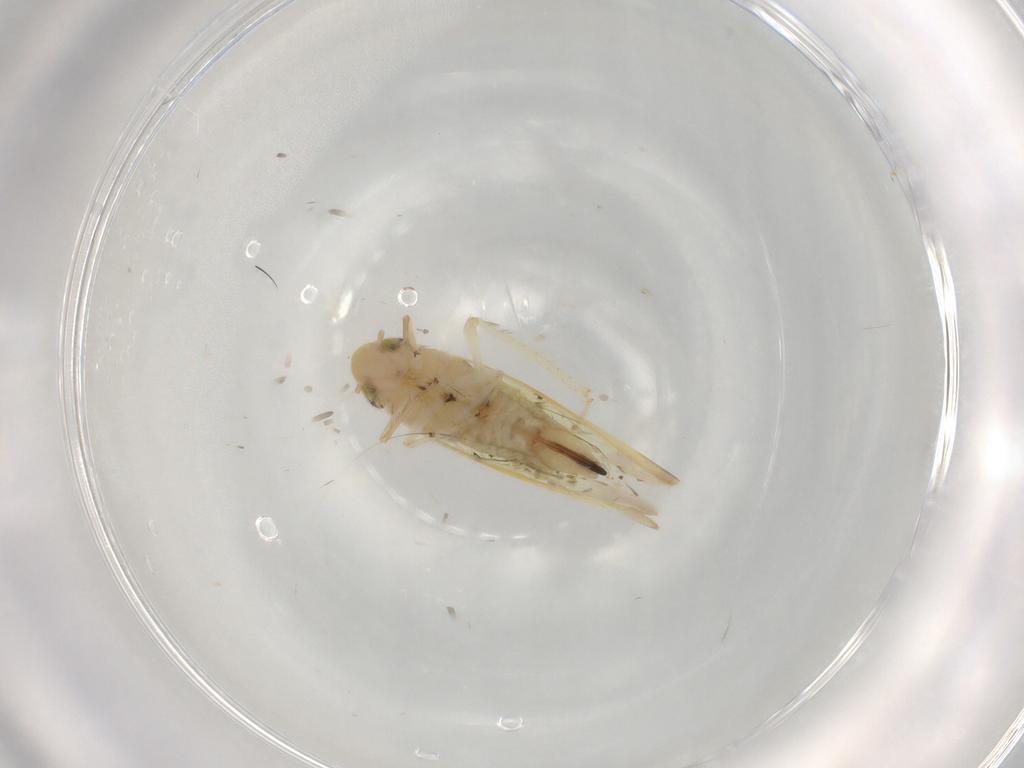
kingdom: Animalia
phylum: Arthropoda
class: Insecta
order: Hemiptera
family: Cicadellidae
